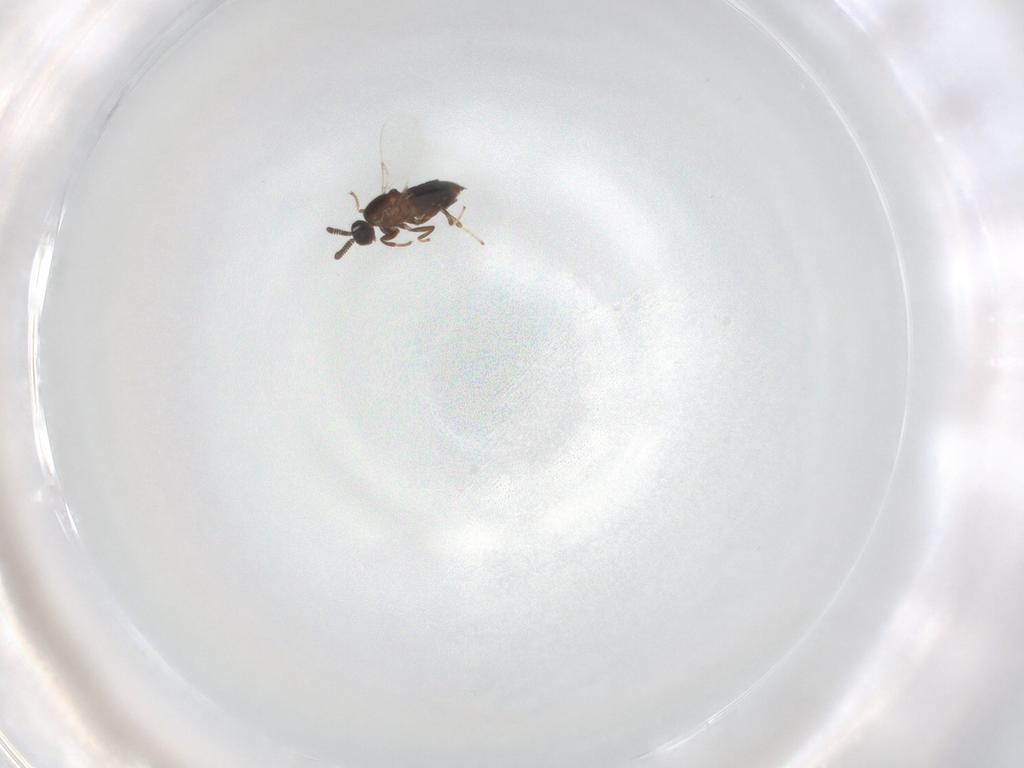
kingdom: Animalia
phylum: Arthropoda
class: Insecta
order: Diptera
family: Scatopsidae
